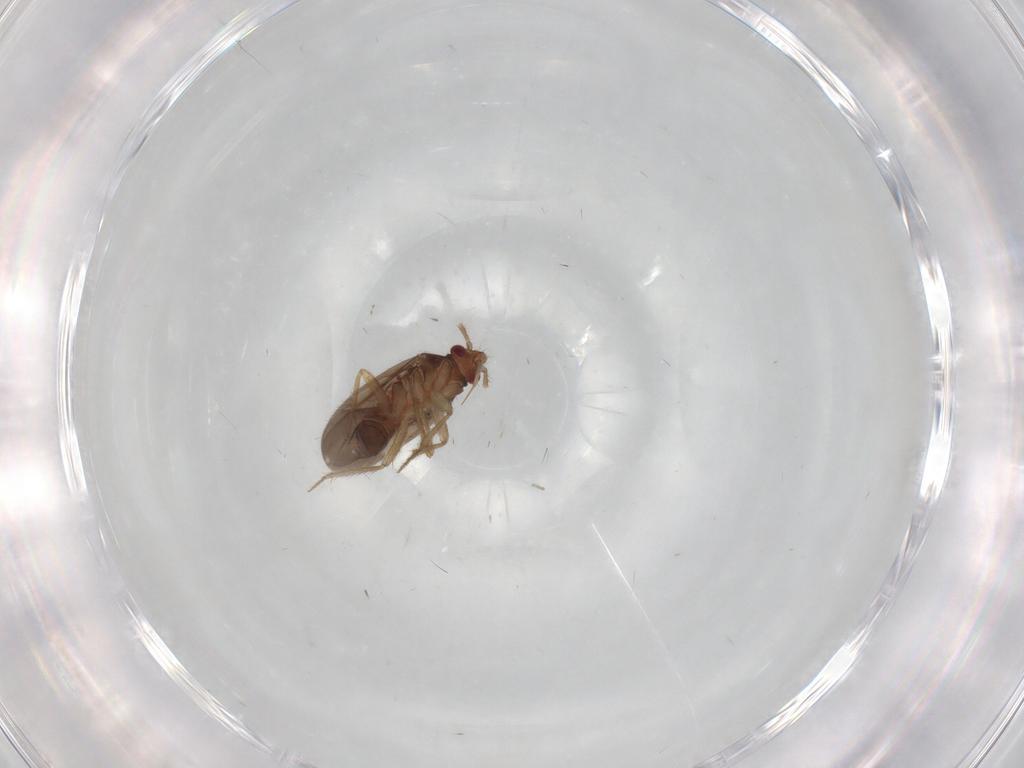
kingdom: Animalia
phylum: Arthropoda
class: Insecta
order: Hemiptera
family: Ceratocombidae
